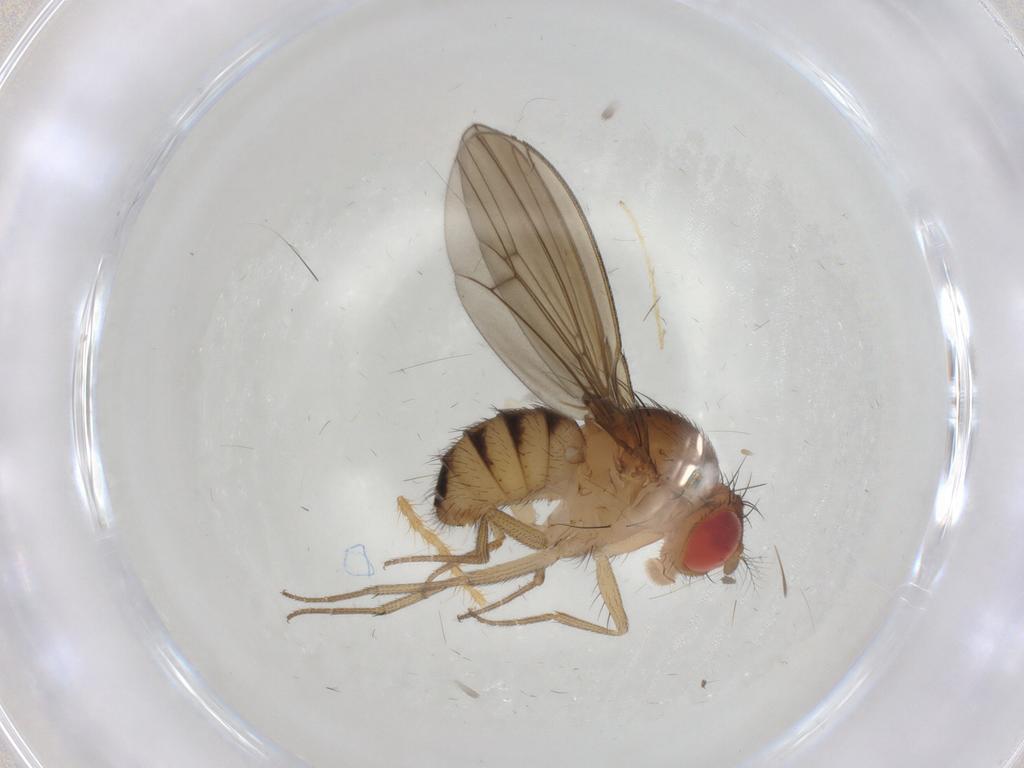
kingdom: Animalia
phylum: Arthropoda
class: Insecta
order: Diptera
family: Drosophilidae
